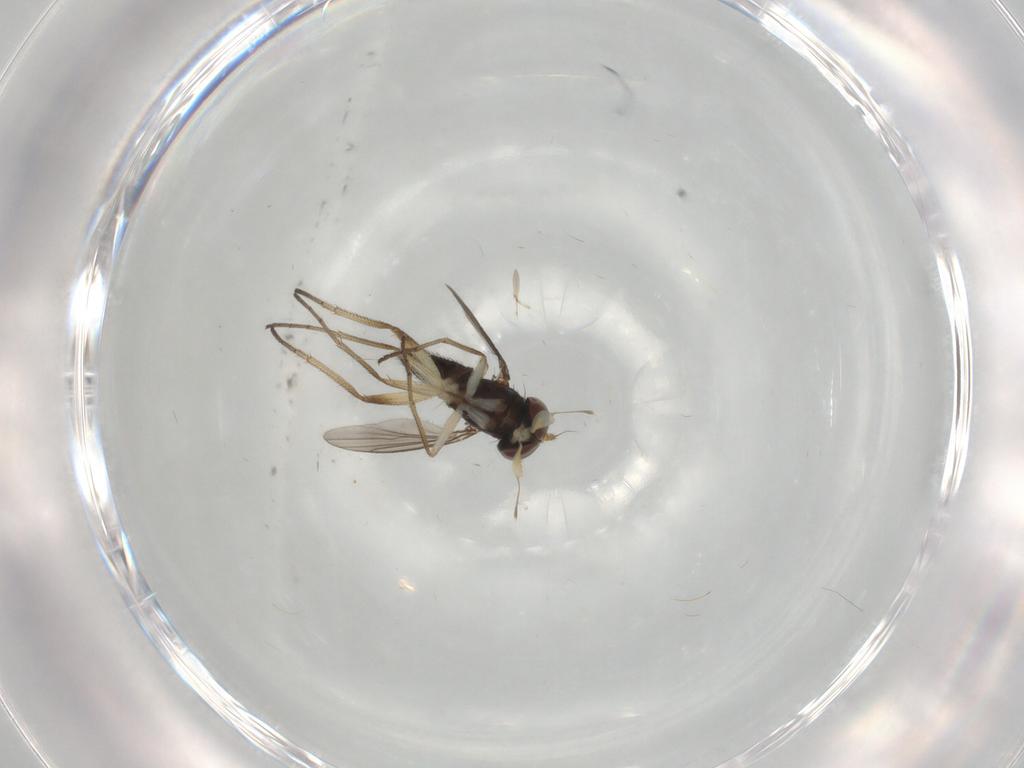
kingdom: Animalia
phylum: Arthropoda
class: Insecta
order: Diptera
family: Dolichopodidae
